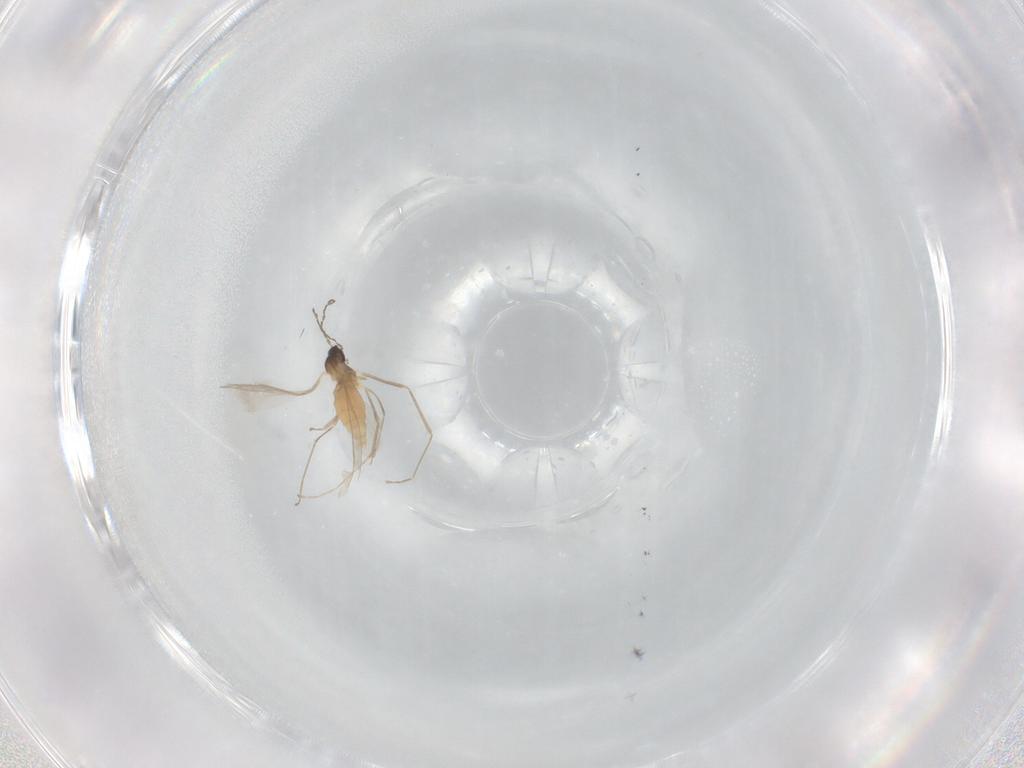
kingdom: Animalia
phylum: Arthropoda
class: Insecta
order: Diptera
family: Cecidomyiidae
